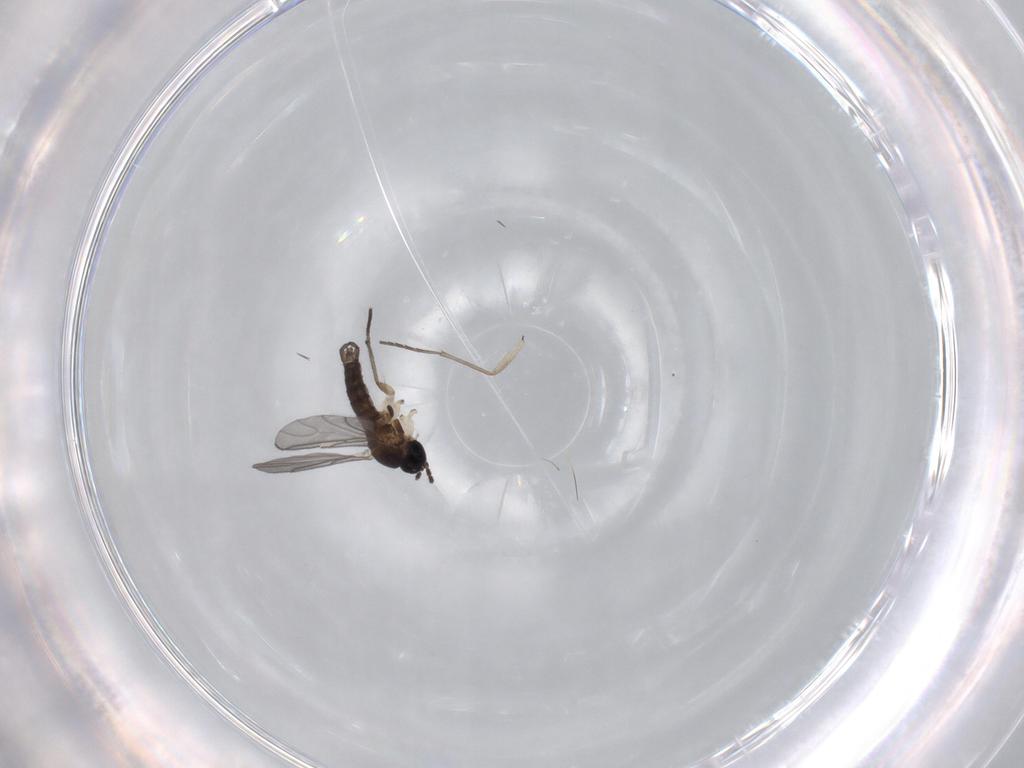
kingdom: Animalia
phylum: Arthropoda
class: Insecta
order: Diptera
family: Sciaridae
